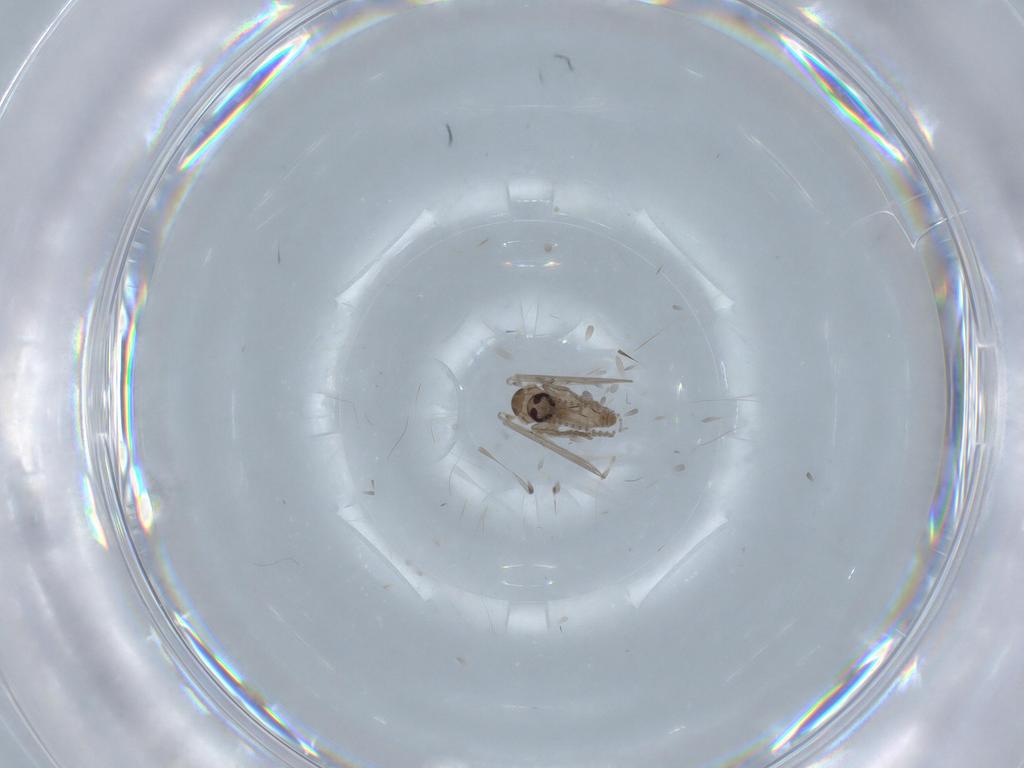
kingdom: Animalia
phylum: Arthropoda
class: Insecta
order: Diptera
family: Psychodidae
